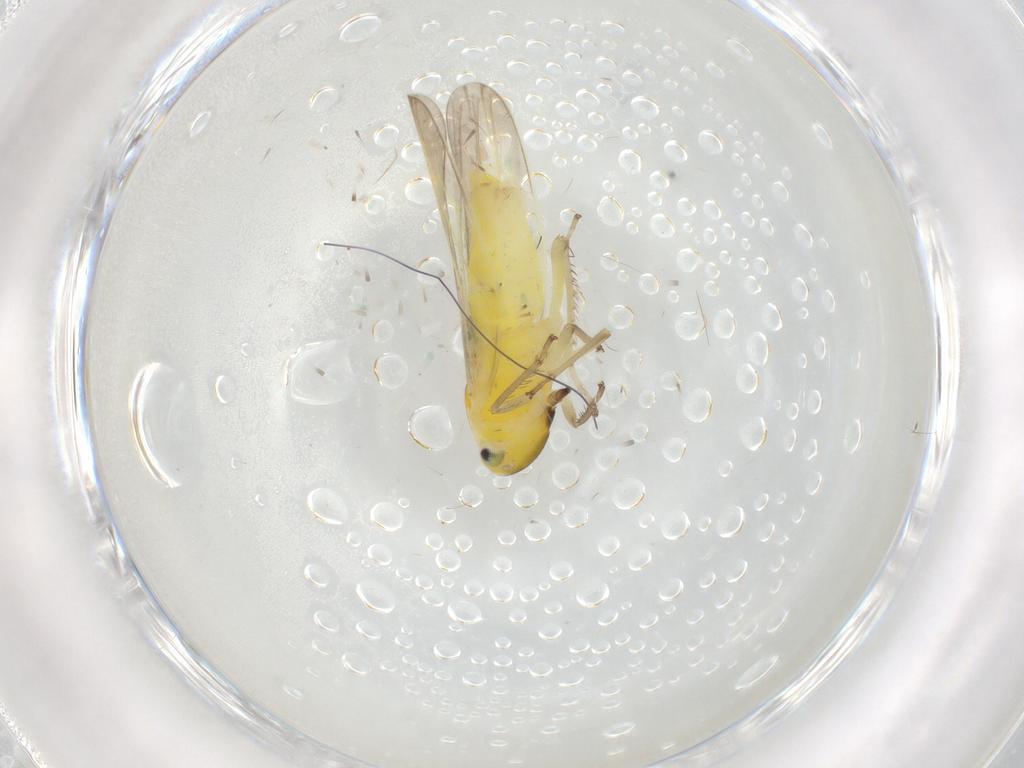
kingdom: Animalia
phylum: Arthropoda
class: Insecta
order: Hemiptera
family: Cicadellidae
